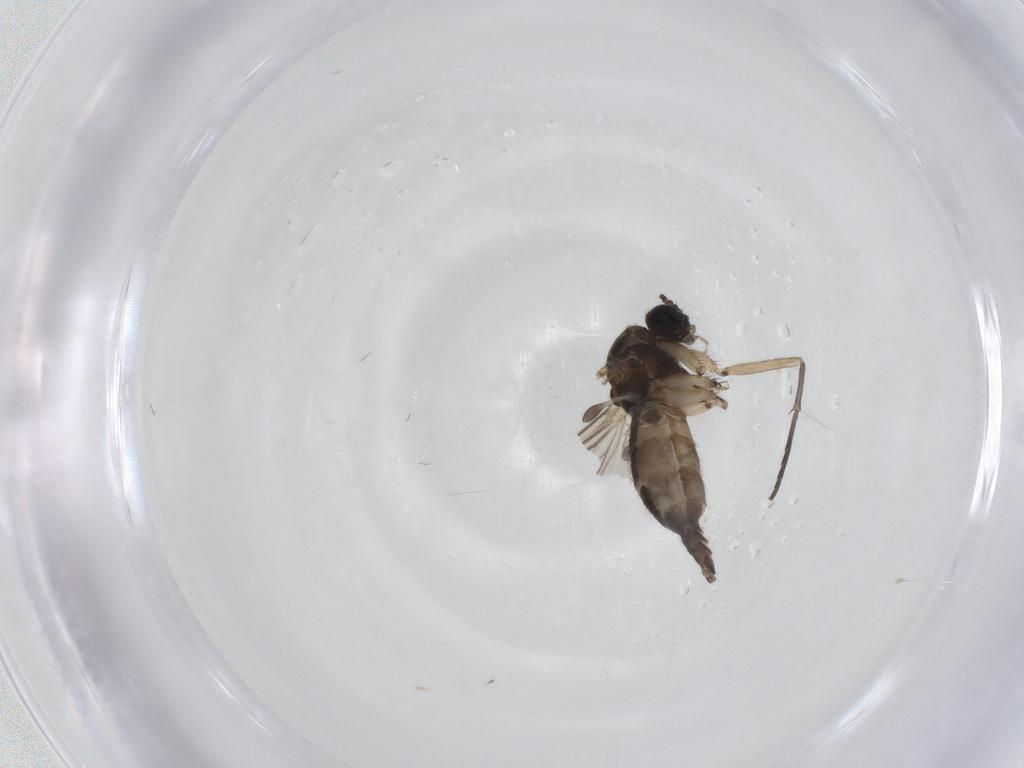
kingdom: Animalia
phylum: Arthropoda
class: Insecta
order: Diptera
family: Sciaridae
